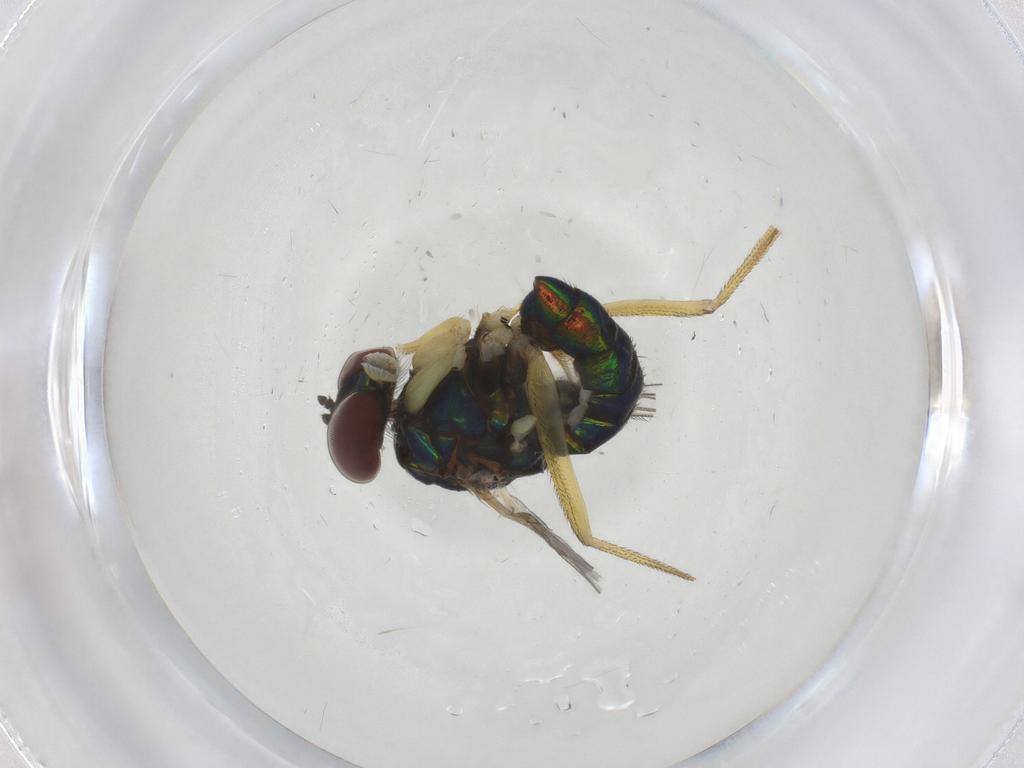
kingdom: Animalia
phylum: Arthropoda
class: Insecta
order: Diptera
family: Dolichopodidae
